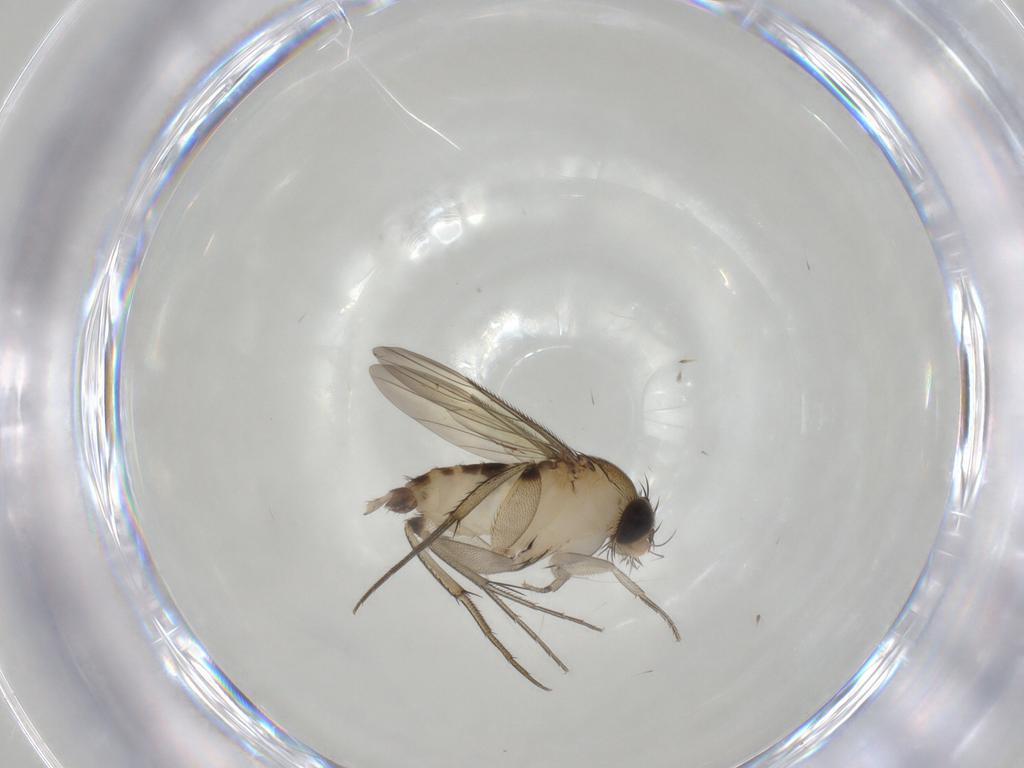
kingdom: Animalia
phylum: Arthropoda
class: Insecta
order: Diptera
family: Phoridae
